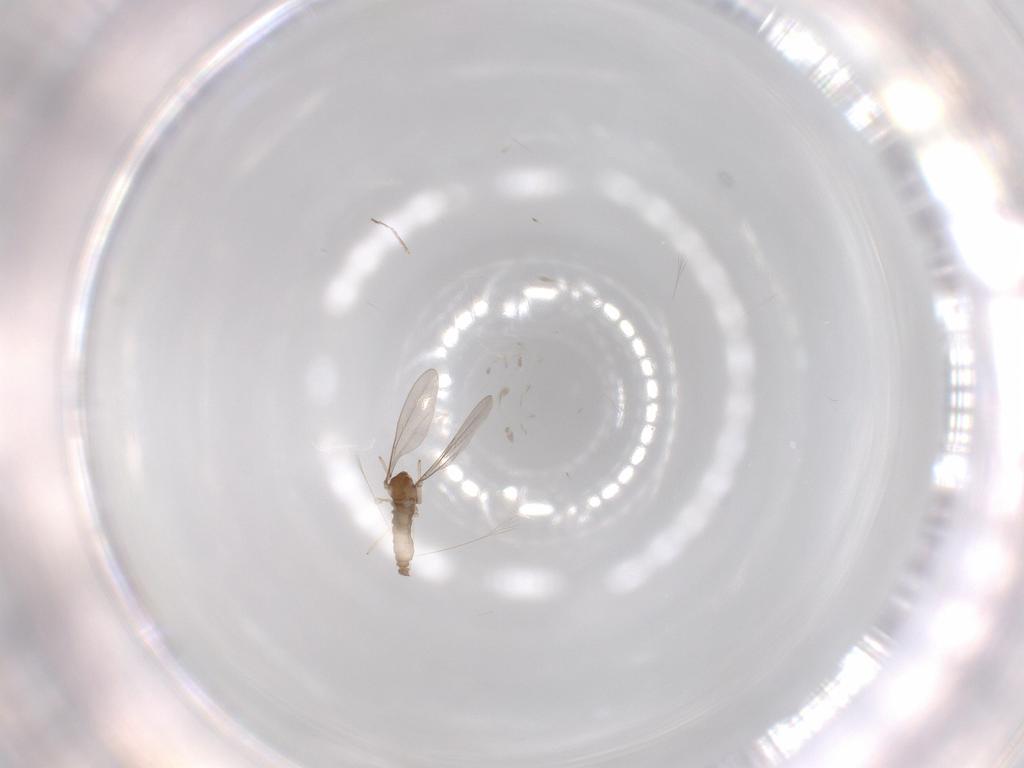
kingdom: Animalia
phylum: Arthropoda
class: Insecta
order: Diptera
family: Cecidomyiidae
